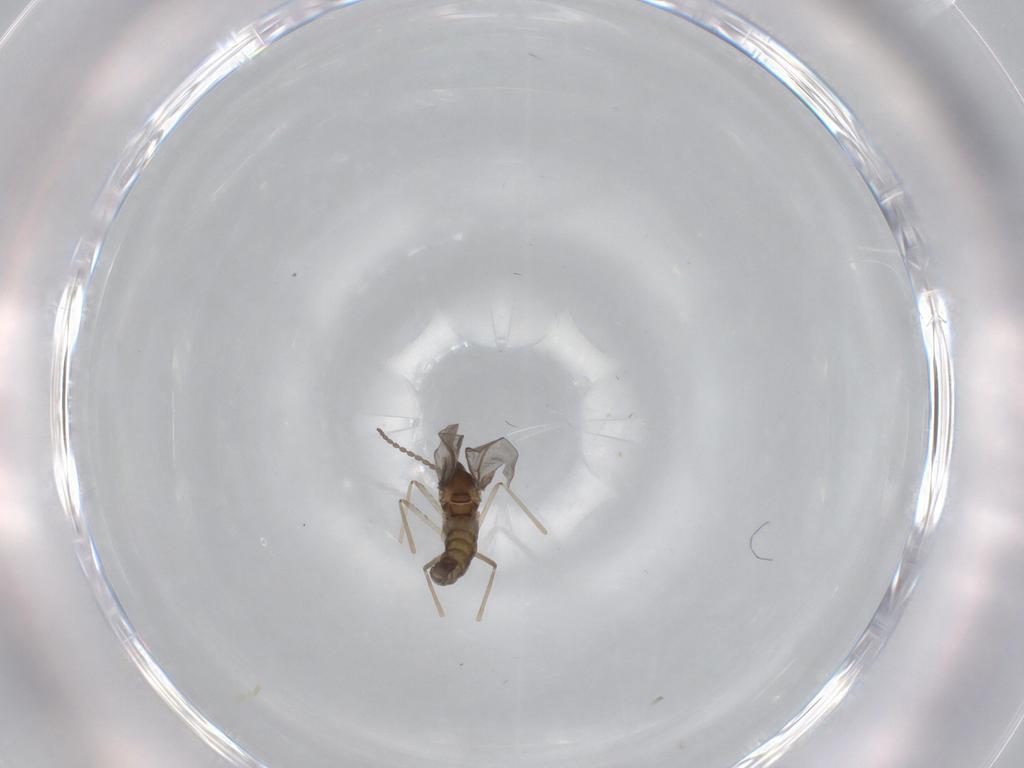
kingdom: Animalia
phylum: Arthropoda
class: Insecta
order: Diptera
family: Cecidomyiidae
